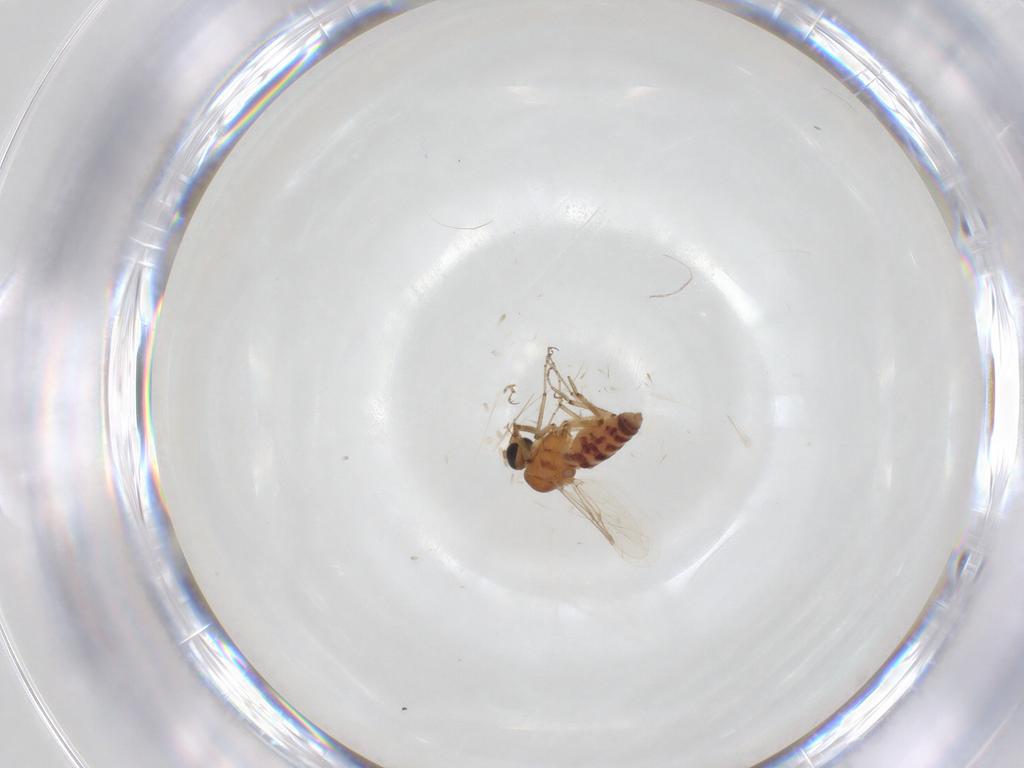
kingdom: Animalia
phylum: Arthropoda
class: Insecta
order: Diptera
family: Ceratopogonidae
